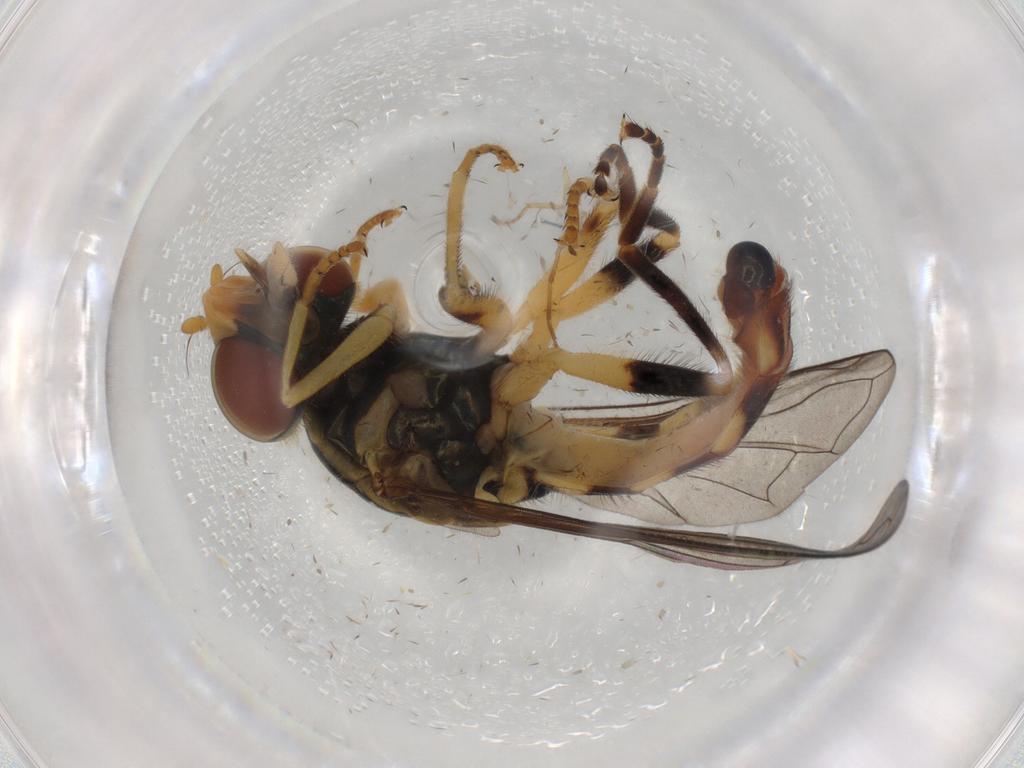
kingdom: Animalia
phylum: Arthropoda
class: Insecta
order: Diptera
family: Syrphidae
